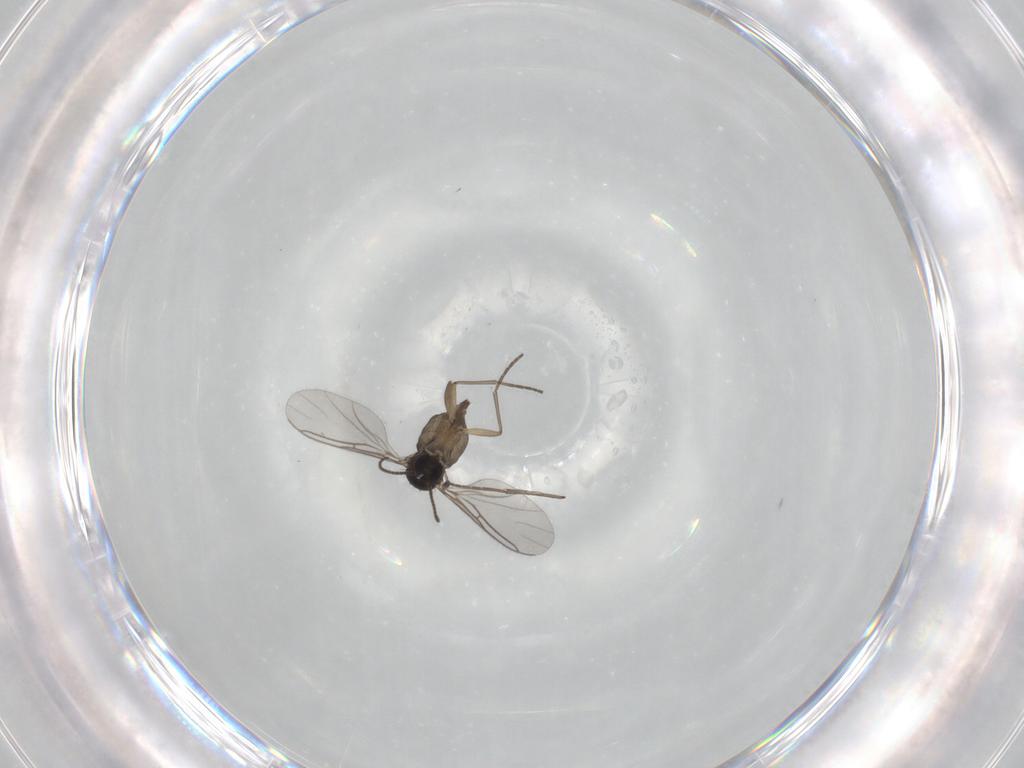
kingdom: Animalia
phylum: Arthropoda
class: Insecta
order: Diptera
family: Sciaridae
